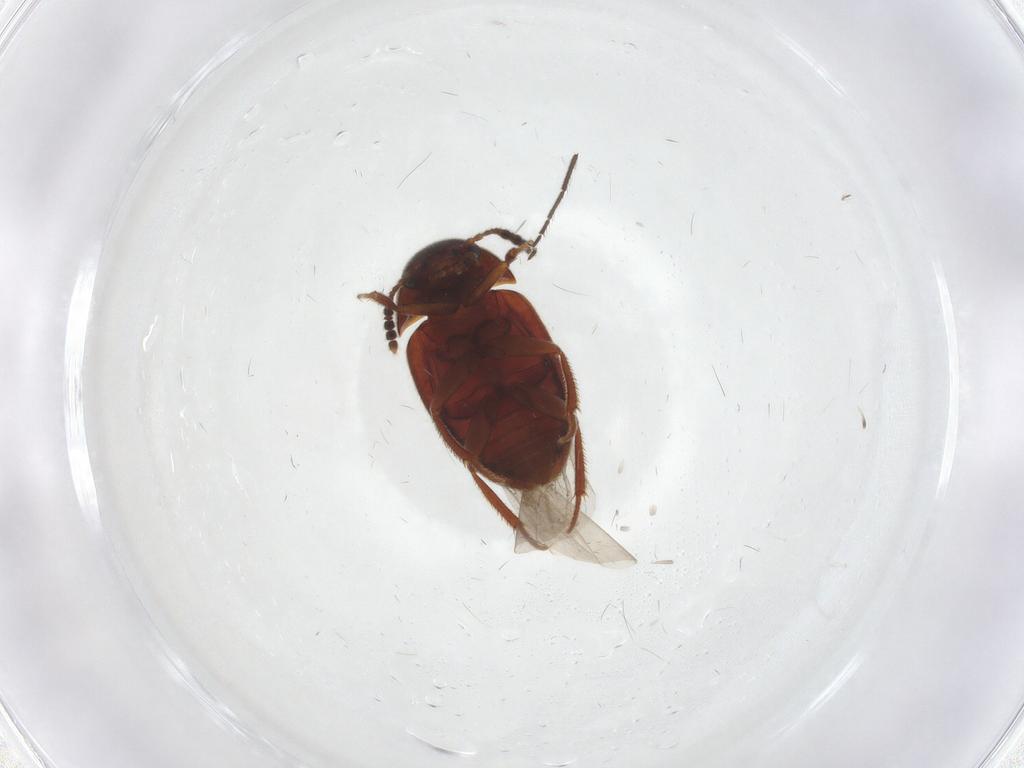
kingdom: Animalia
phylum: Arthropoda
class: Insecta
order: Coleoptera
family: Leiodidae
